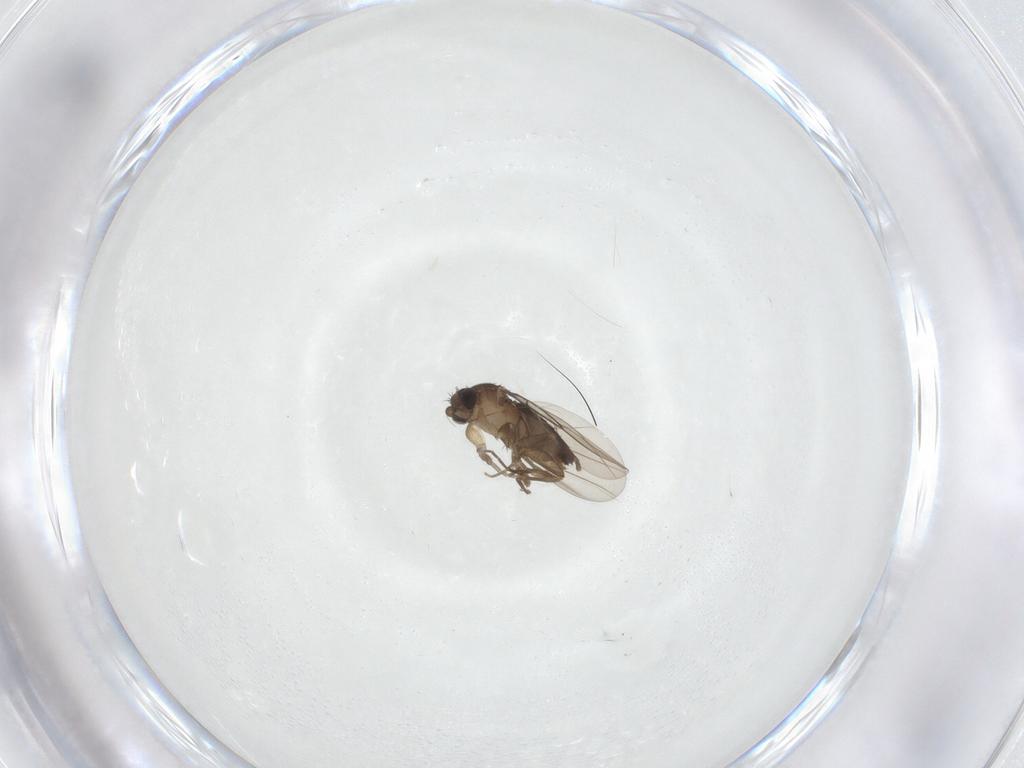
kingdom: Animalia
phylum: Arthropoda
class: Insecta
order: Diptera
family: Phoridae
